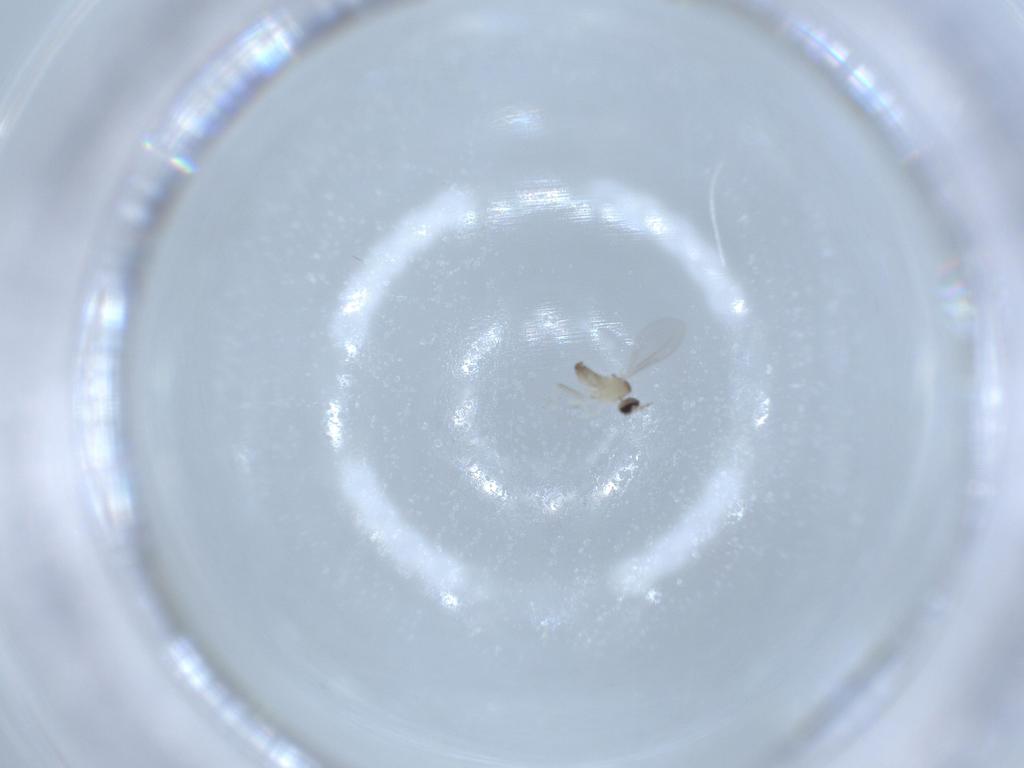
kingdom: Animalia
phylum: Arthropoda
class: Insecta
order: Diptera
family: Cecidomyiidae
